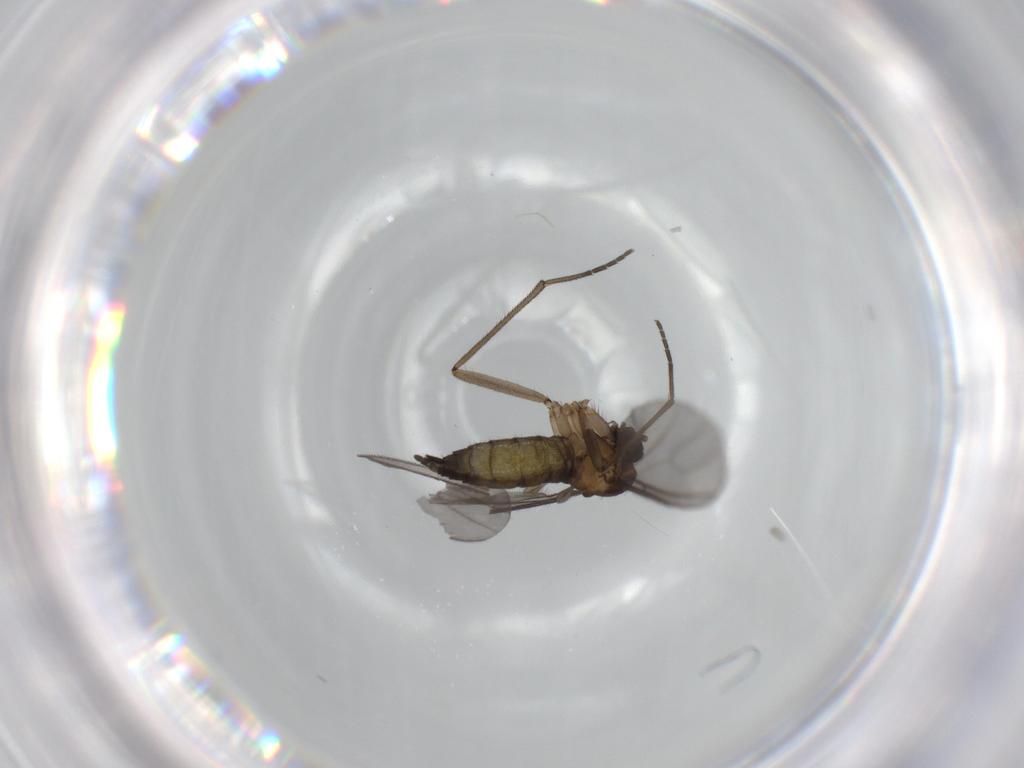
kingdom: Animalia
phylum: Arthropoda
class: Insecta
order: Diptera
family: Sciaridae
